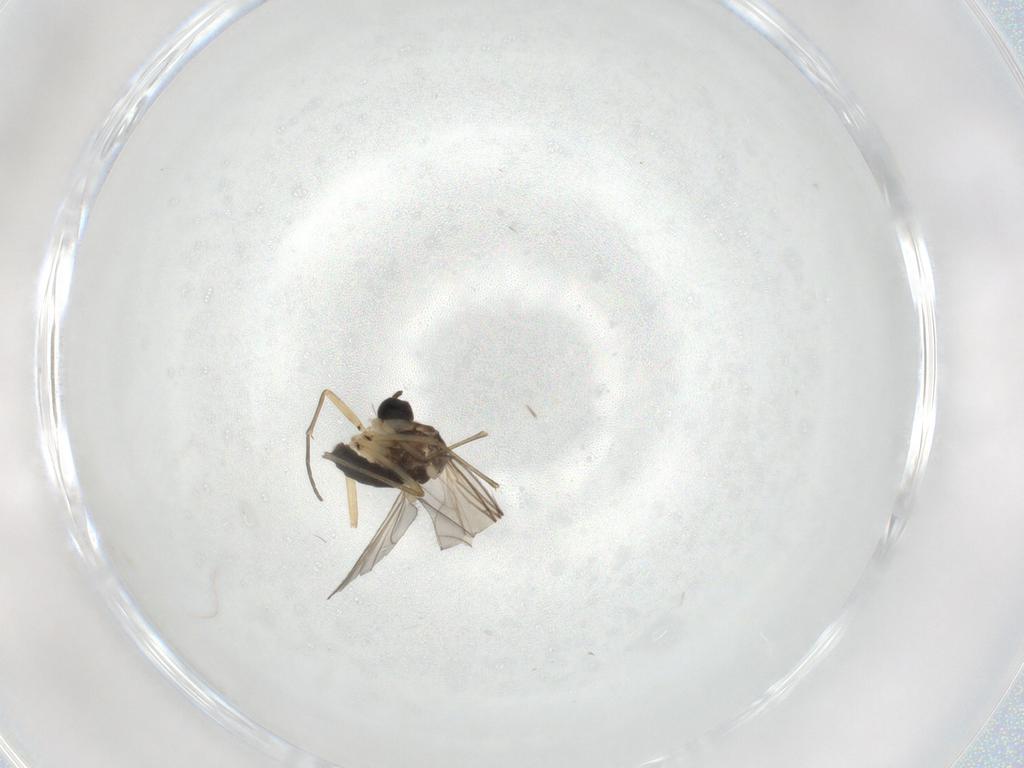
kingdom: Animalia
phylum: Arthropoda
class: Insecta
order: Diptera
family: Sciaridae
